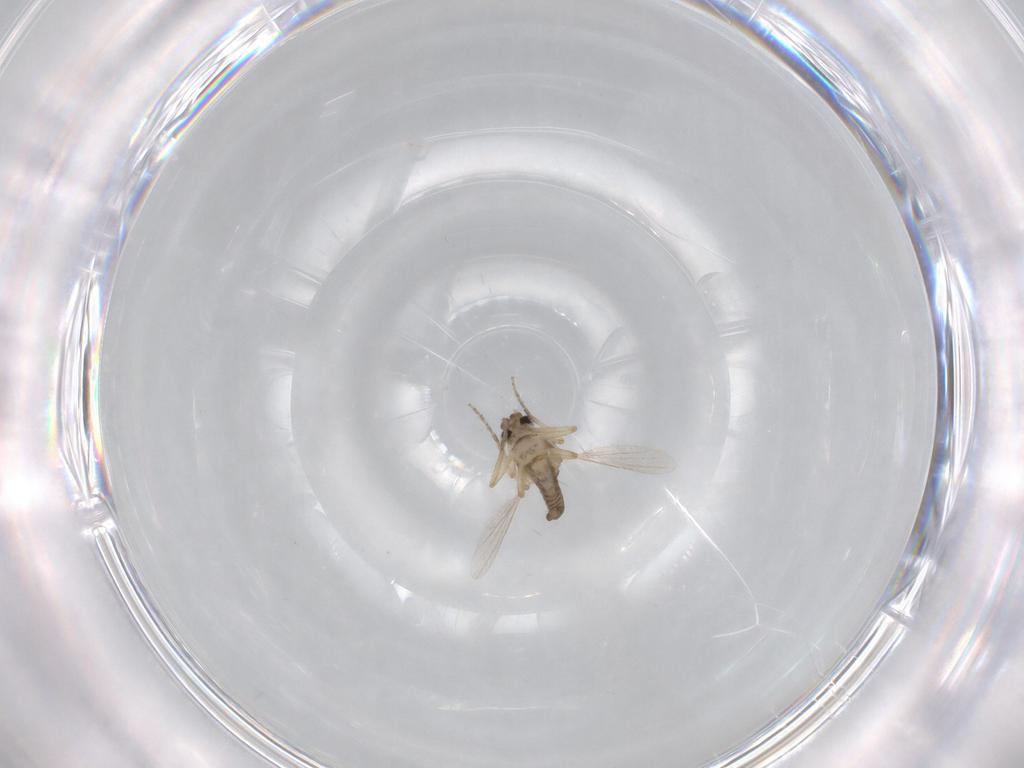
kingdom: Animalia
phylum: Arthropoda
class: Insecta
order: Diptera
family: Ceratopogonidae
